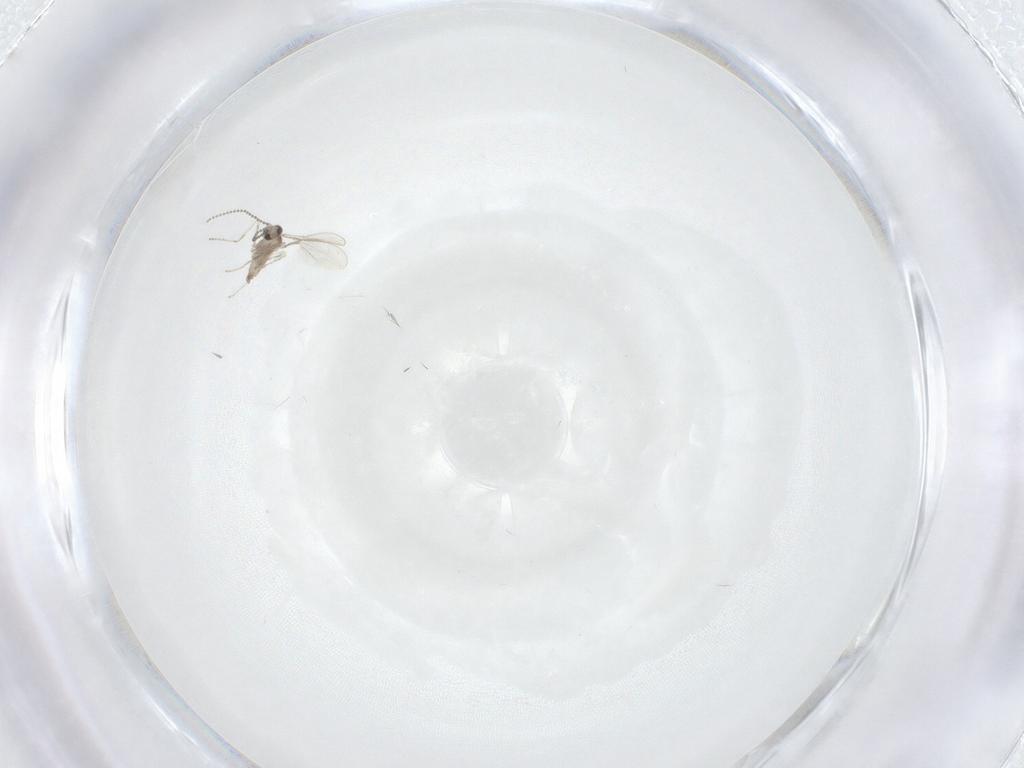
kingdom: Animalia
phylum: Arthropoda
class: Insecta
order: Diptera
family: Cecidomyiidae
